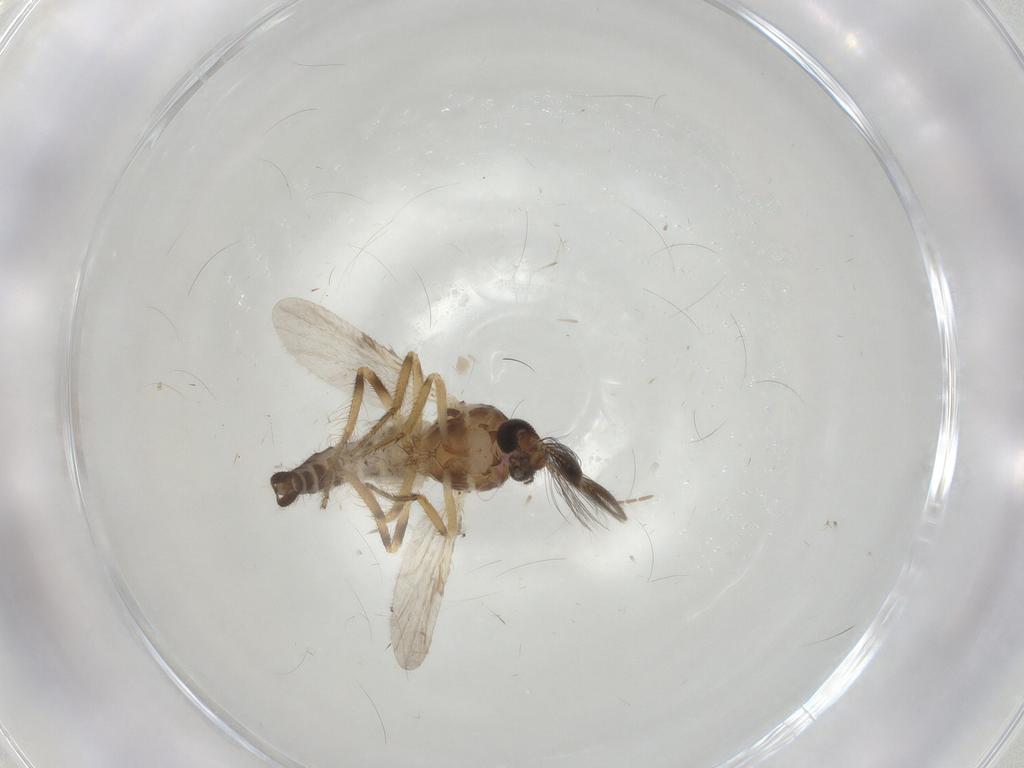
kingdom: Animalia
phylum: Arthropoda
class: Insecta
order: Diptera
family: Ceratopogonidae
